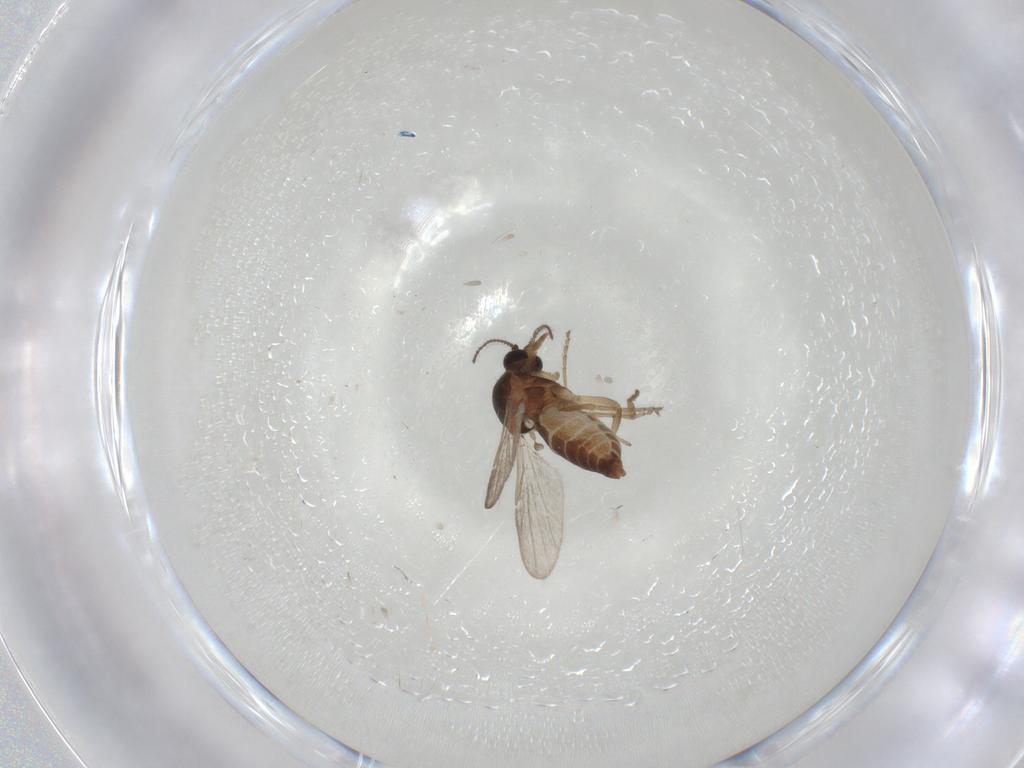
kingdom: Animalia
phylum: Arthropoda
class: Insecta
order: Diptera
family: Ceratopogonidae
